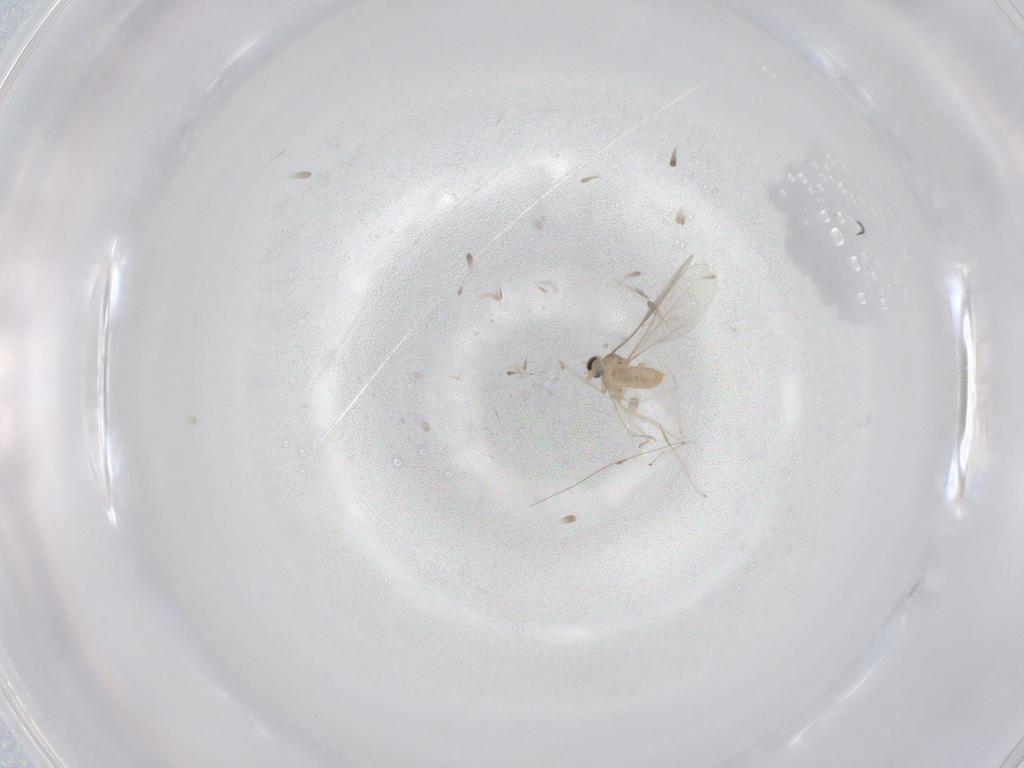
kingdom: Animalia
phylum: Arthropoda
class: Insecta
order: Diptera
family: Cecidomyiidae
